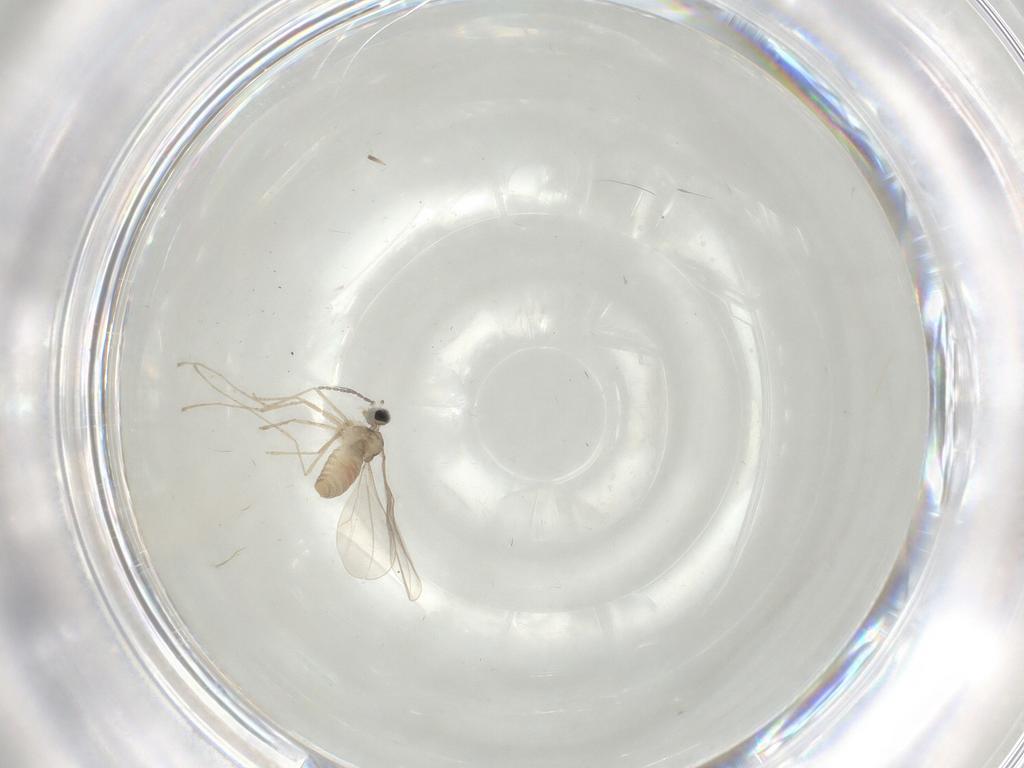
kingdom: Animalia
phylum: Arthropoda
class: Insecta
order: Diptera
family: Cecidomyiidae
